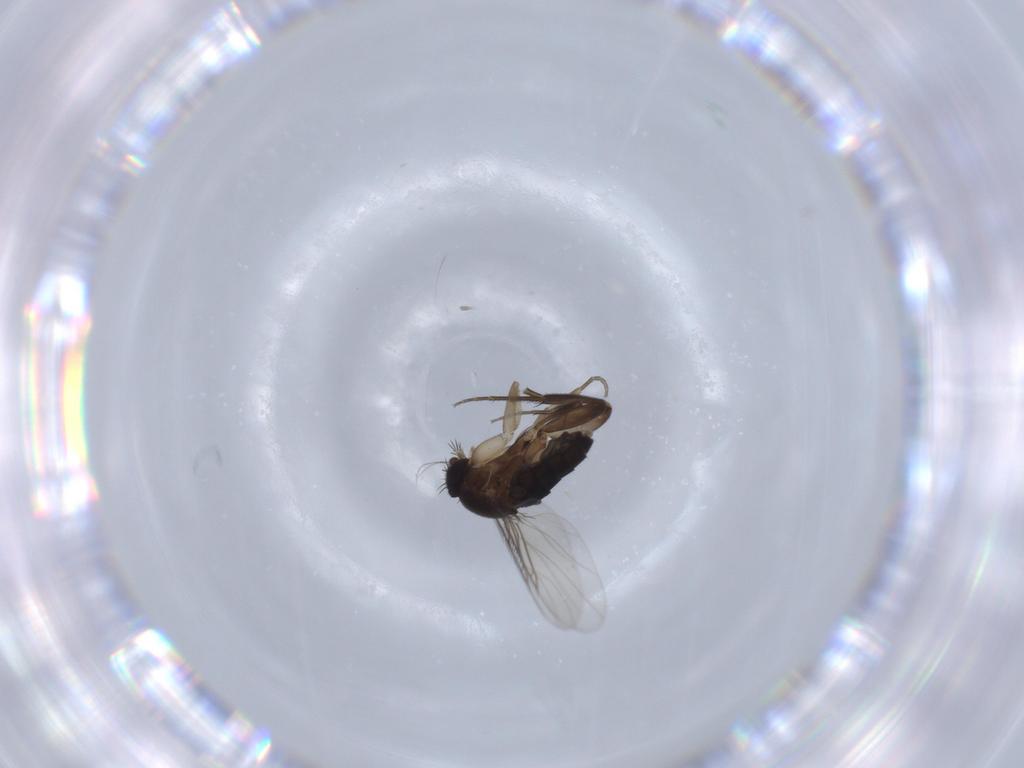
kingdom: Animalia
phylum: Arthropoda
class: Insecta
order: Diptera
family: Phoridae
